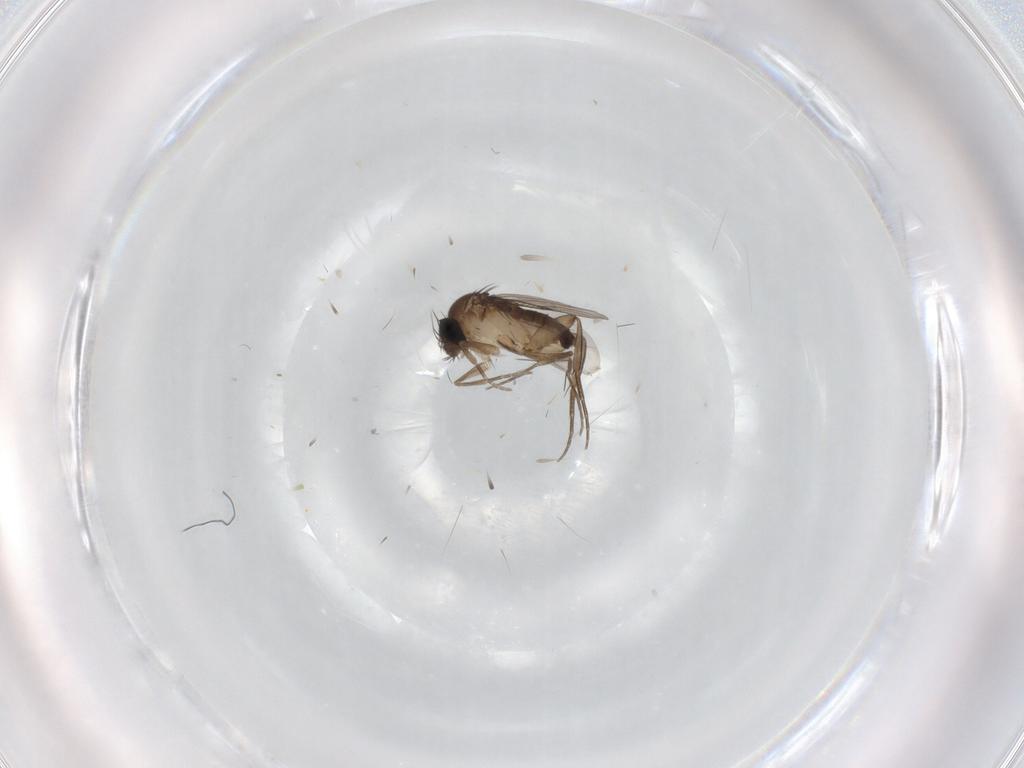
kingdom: Animalia
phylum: Arthropoda
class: Insecta
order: Diptera
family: Phoridae
